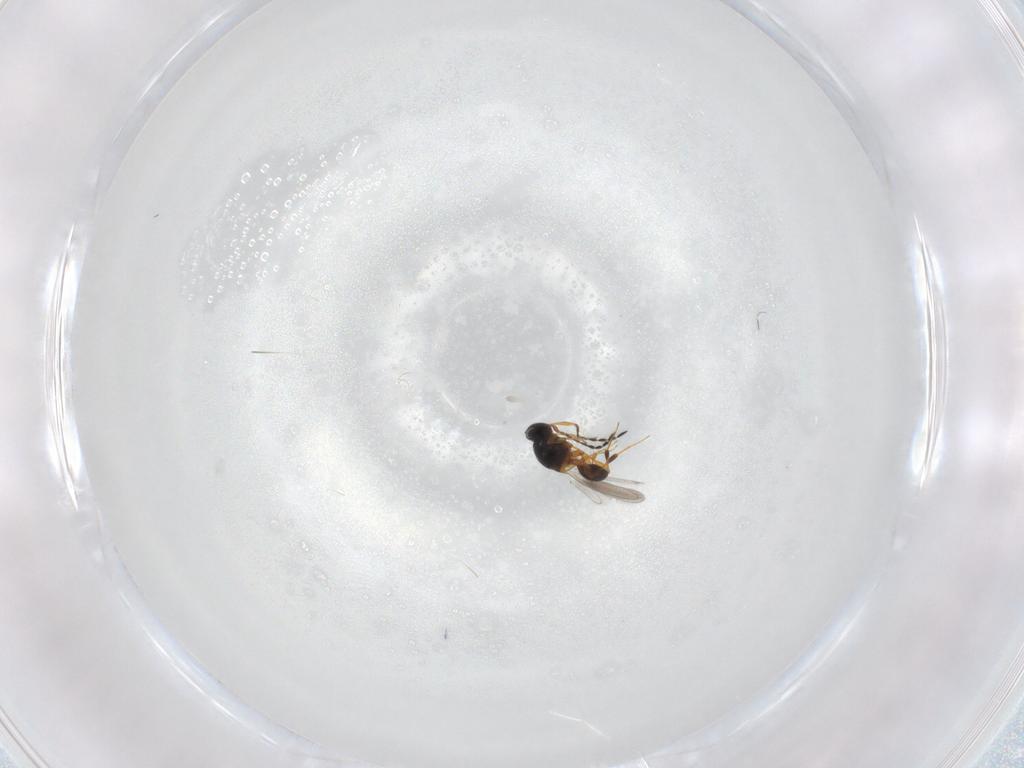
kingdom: Animalia
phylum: Arthropoda
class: Insecta
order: Hymenoptera
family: Platygastridae
